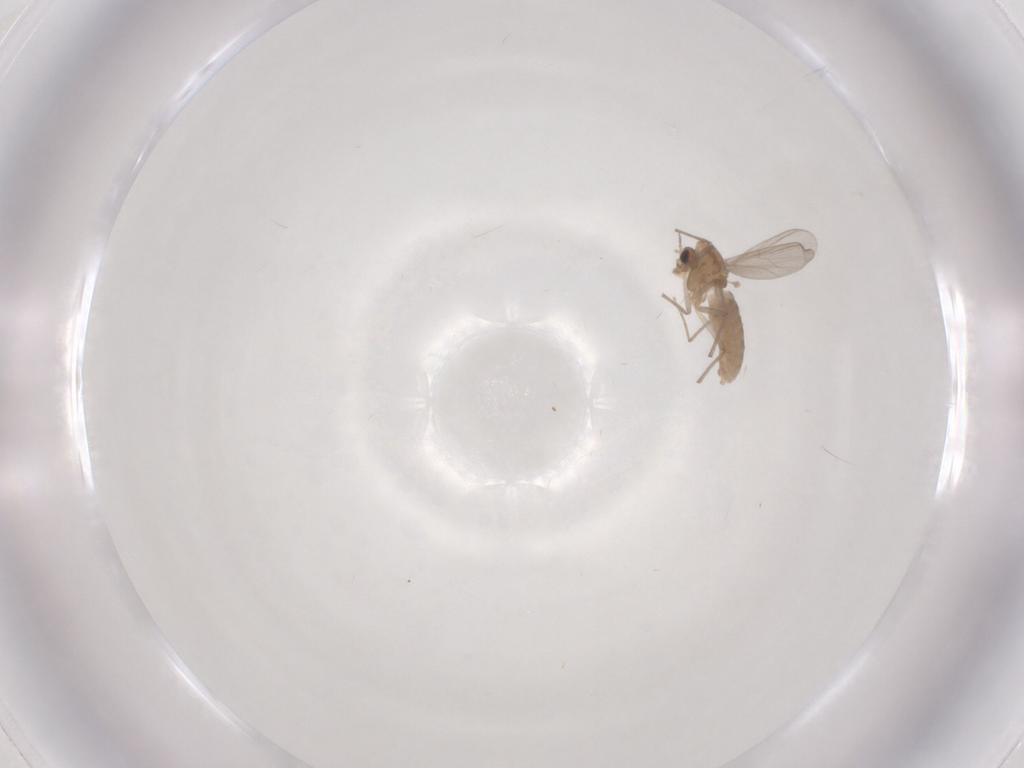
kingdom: Animalia
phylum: Arthropoda
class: Insecta
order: Diptera
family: Chironomidae
